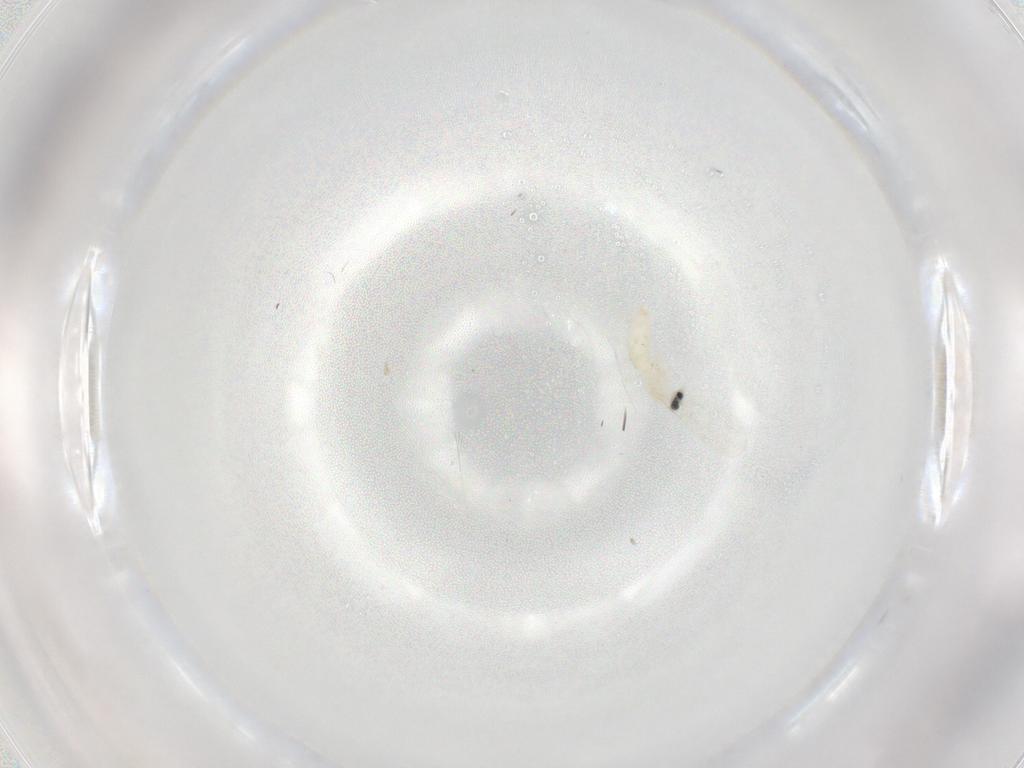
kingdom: Animalia
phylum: Arthropoda
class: Insecta
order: Diptera
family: Cecidomyiidae
